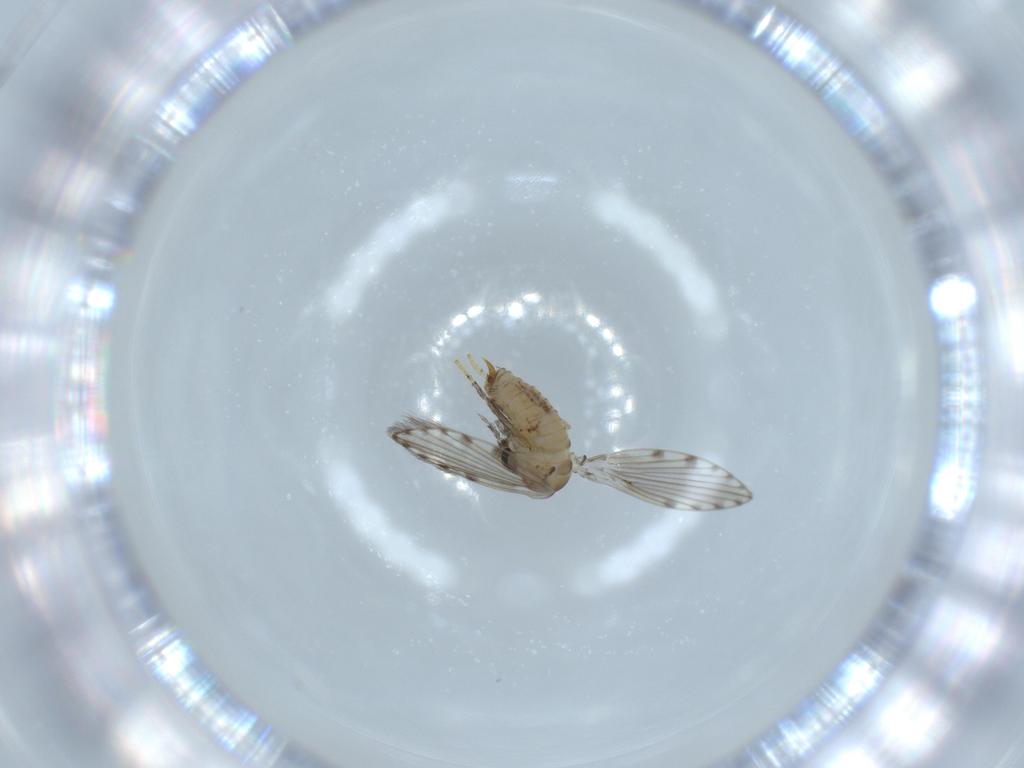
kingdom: Animalia
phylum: Arthropoda
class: Insecta
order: Diptera
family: Psychodidae
